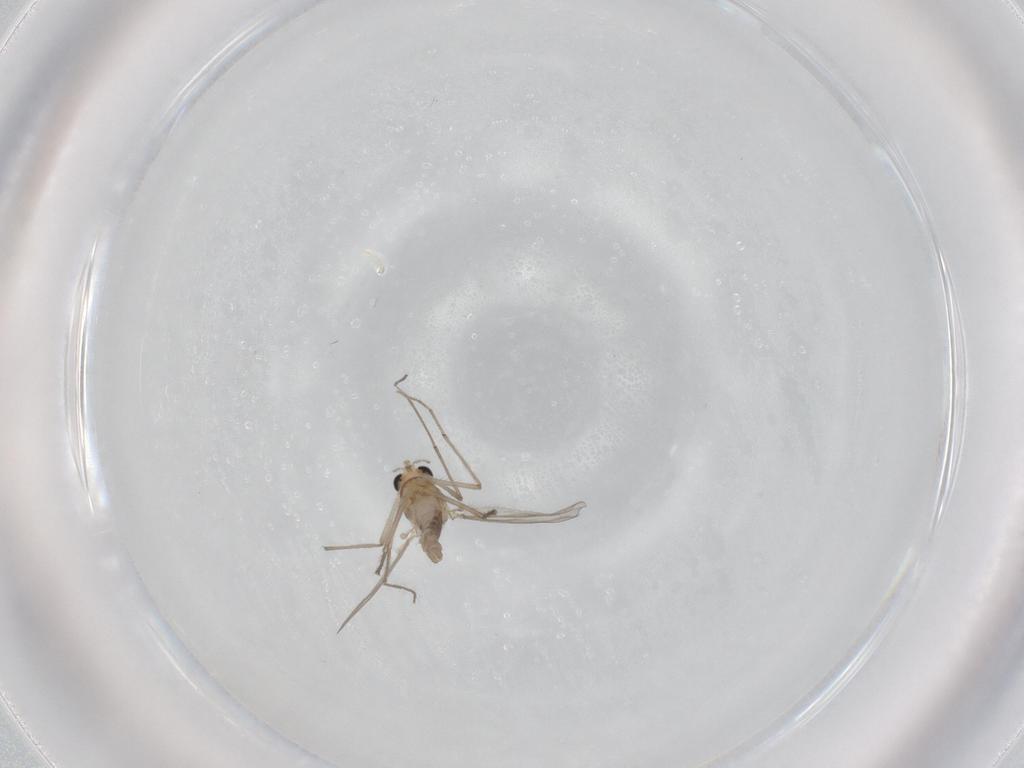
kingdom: Animalia
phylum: Arthropoda
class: Insecta
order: Diptera
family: Chironomidae
